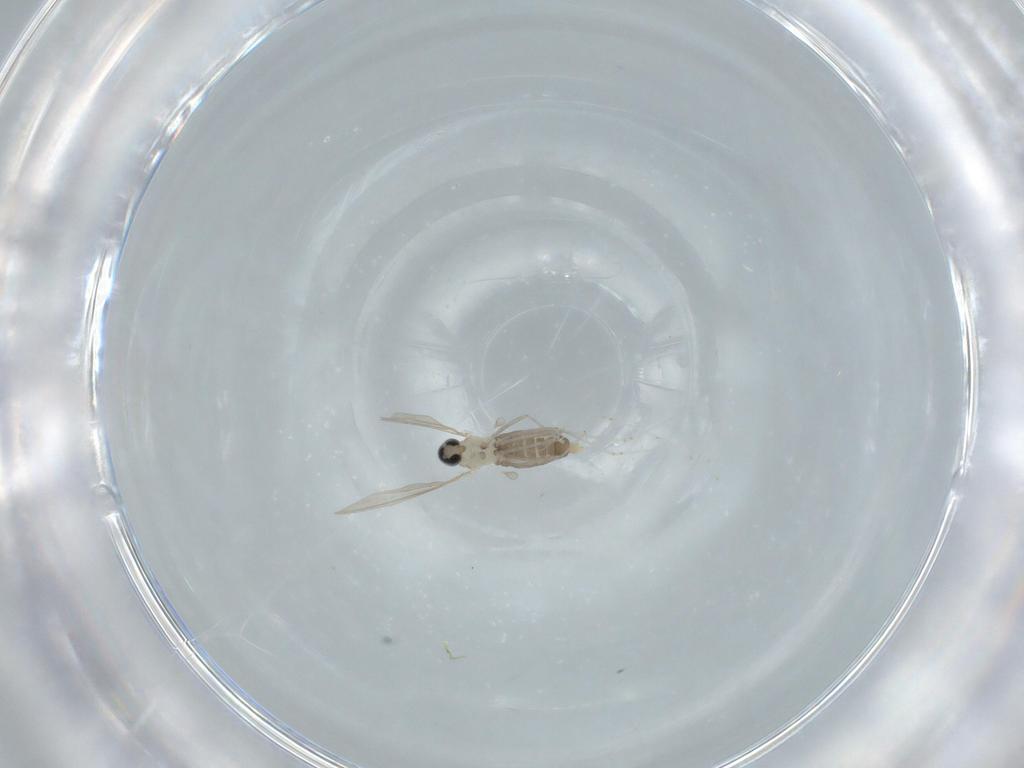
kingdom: Animalia
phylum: Arthropoda
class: Insecta
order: Diptera
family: Cecidomyiidae
